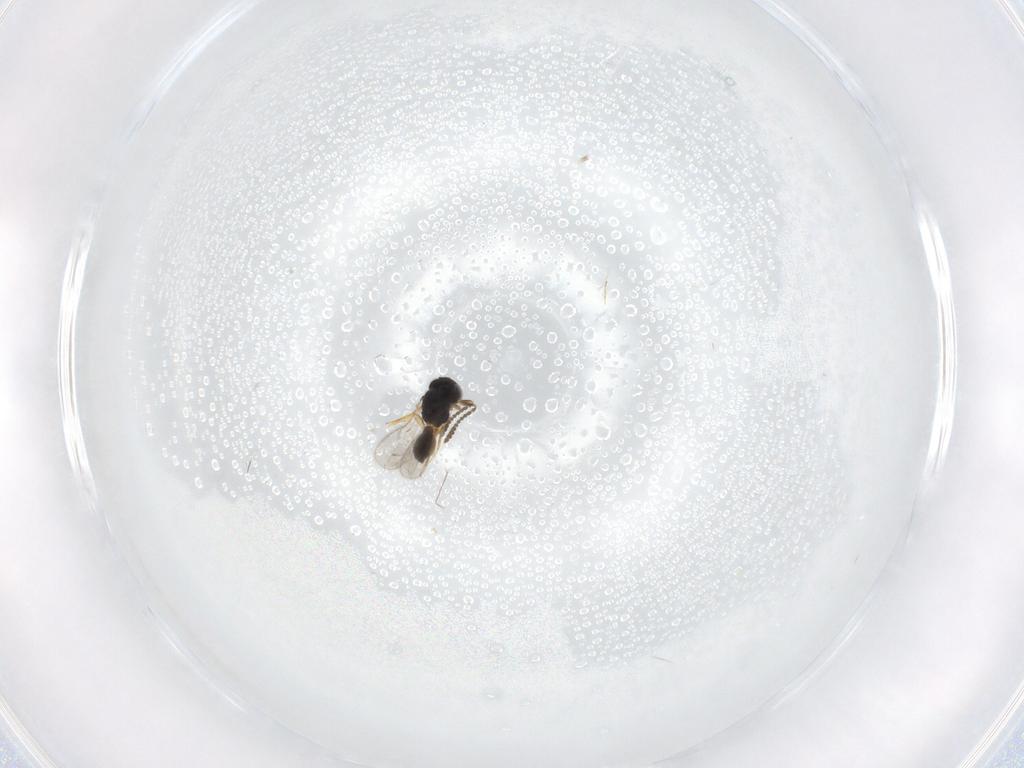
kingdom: Animalia
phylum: Arthropoda
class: Insecta
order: Hymenoptera
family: Scelionidae
